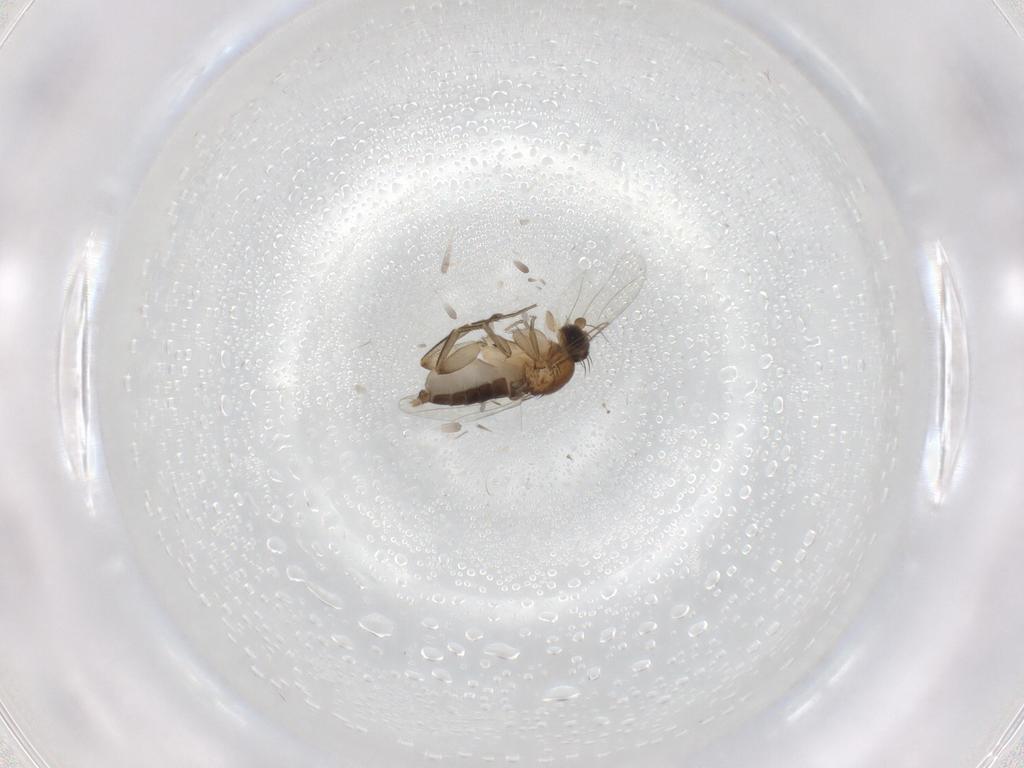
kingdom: Animalia
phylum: Arthropoda
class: Insecta
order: Diptera
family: Phoridae
